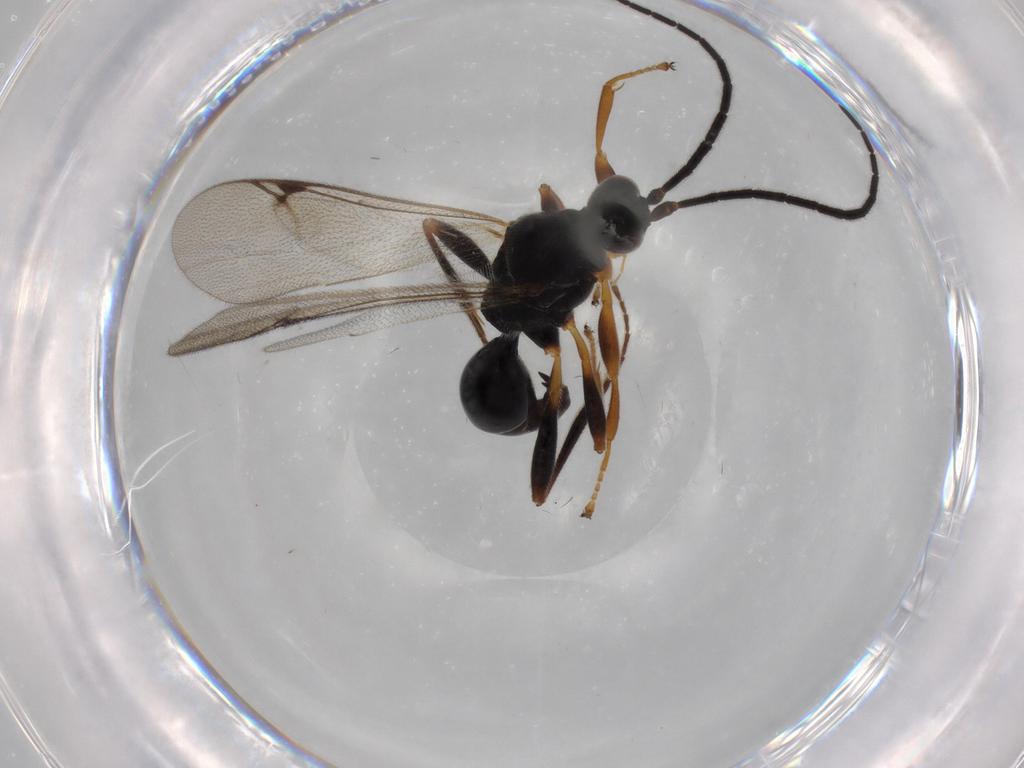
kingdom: Animalia
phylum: Arthropoda
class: Insecta
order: Hymenoptera
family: Proctotrupidae
